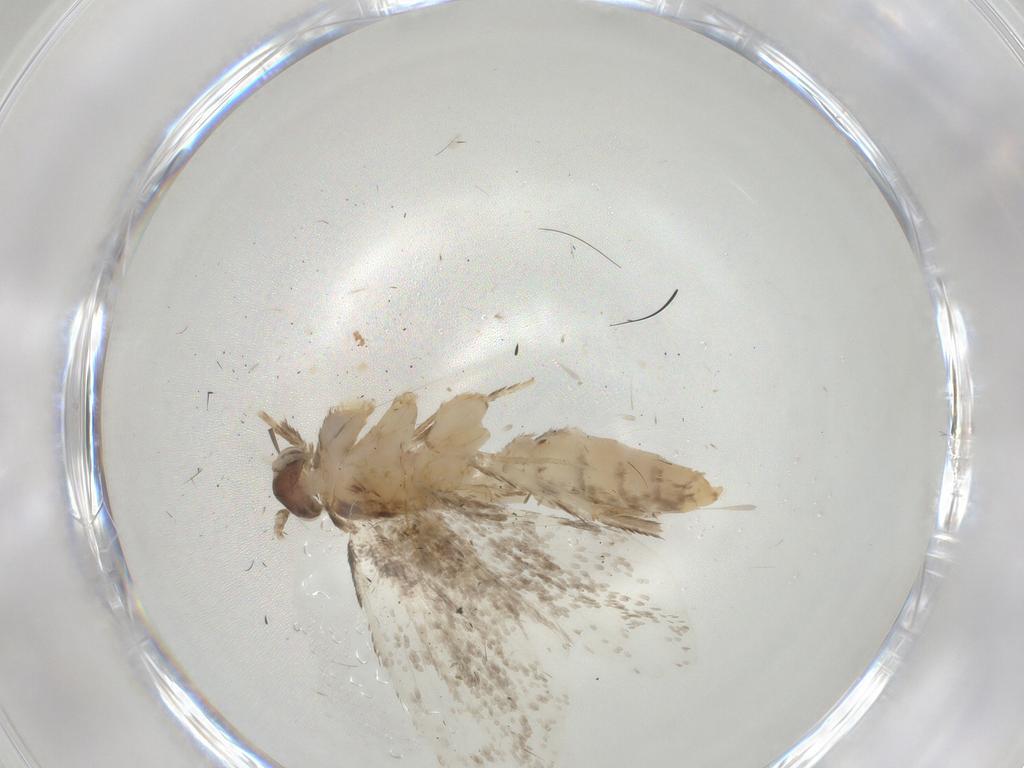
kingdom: Animalia
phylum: Arthropoda
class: Insecta
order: Lepidoptera
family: Dryadaulidae
